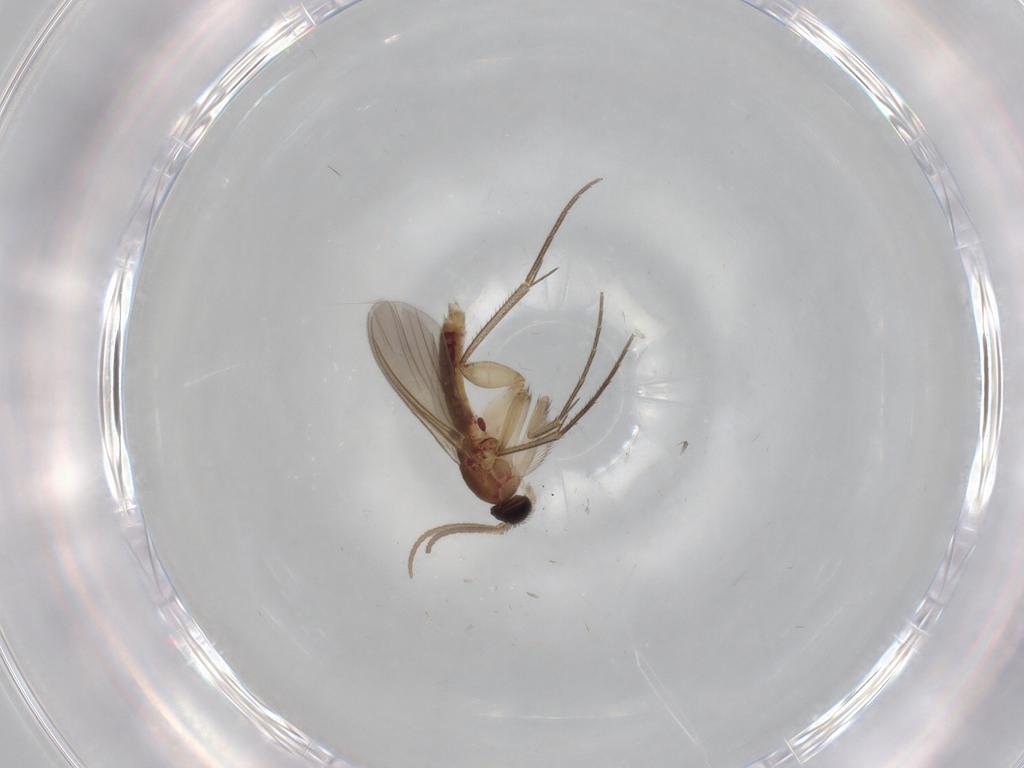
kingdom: Animalia
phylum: Arthropoda
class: Insecta
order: Diptera
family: Mycetophilidae
